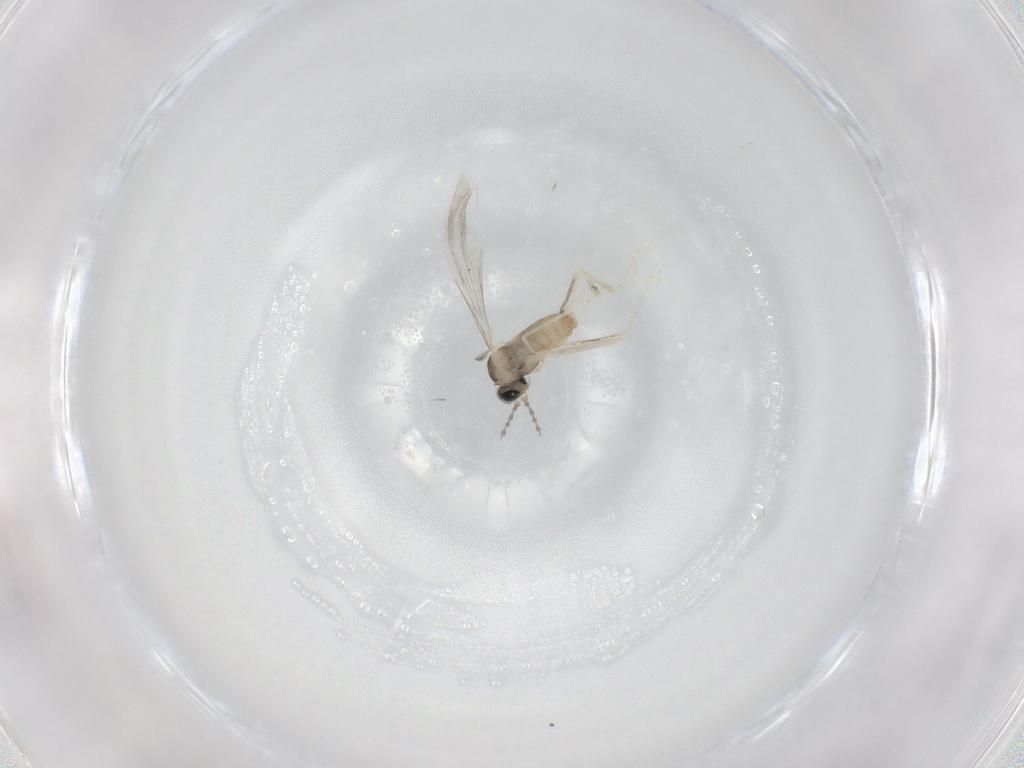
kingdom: Animalia
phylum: Arthropoda
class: Insecta
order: Diptera
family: Cecidomyiidae
